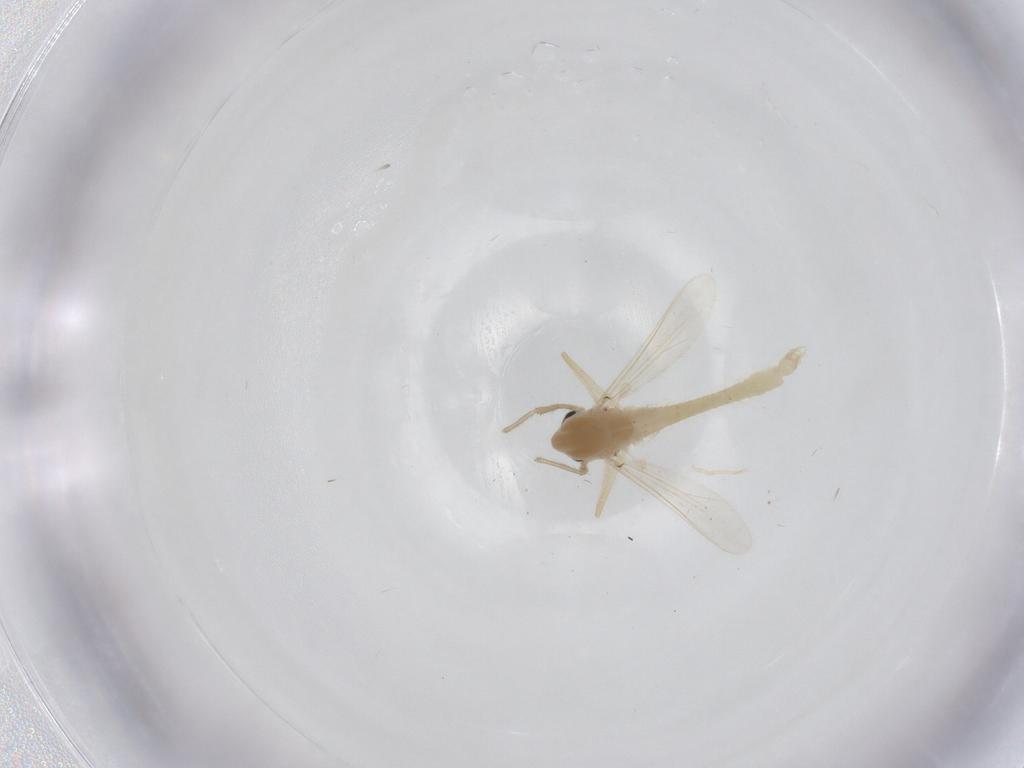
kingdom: Animalia
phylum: Arthropoda
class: Insecta
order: Diptera
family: Chironomidae
